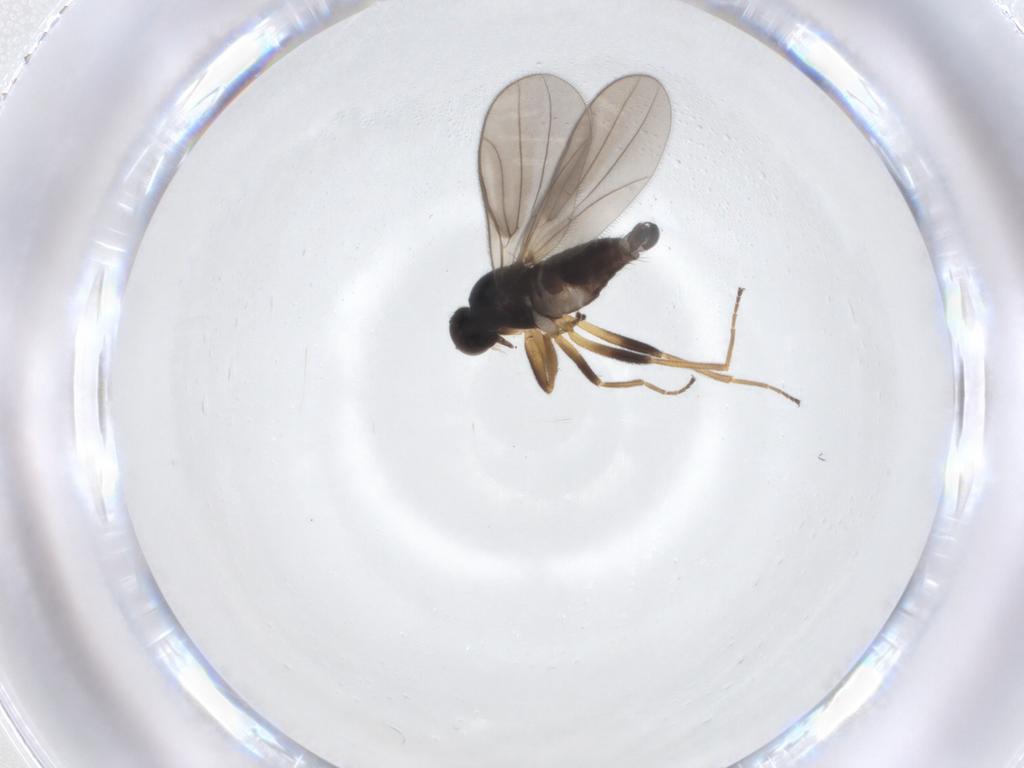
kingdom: Animalia
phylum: Arthropoda
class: Insecta
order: Diptera
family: Hybotidae
